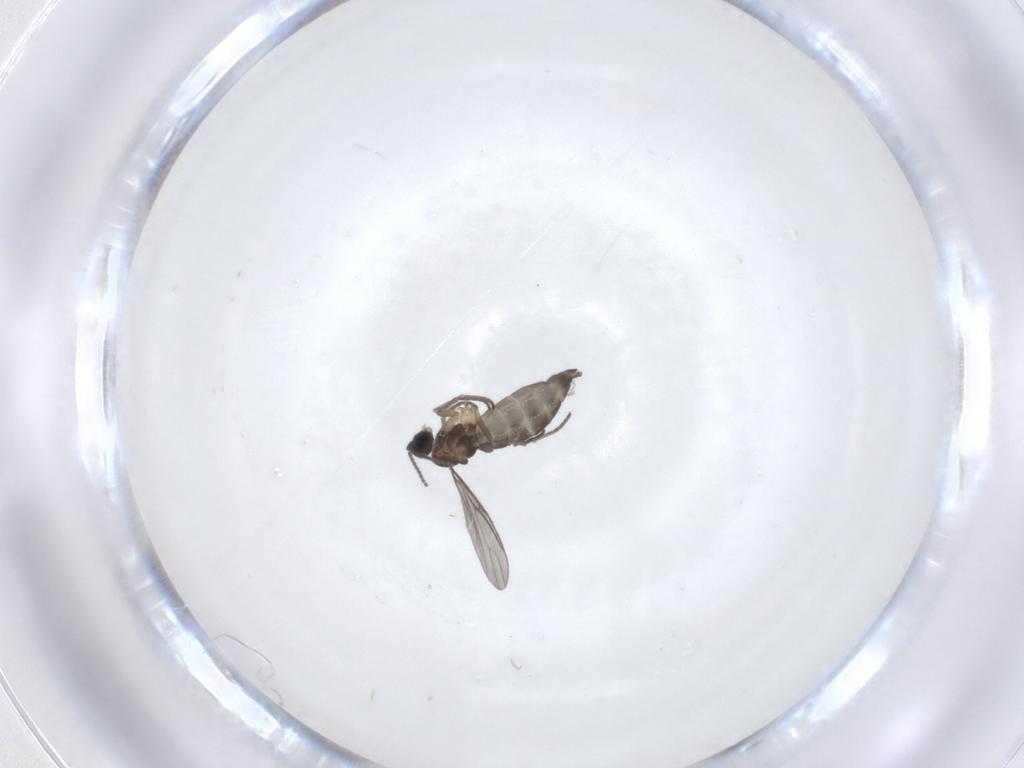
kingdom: Animalia
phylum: Arthropoda
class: Insecta
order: Diptera
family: Sciaridae
